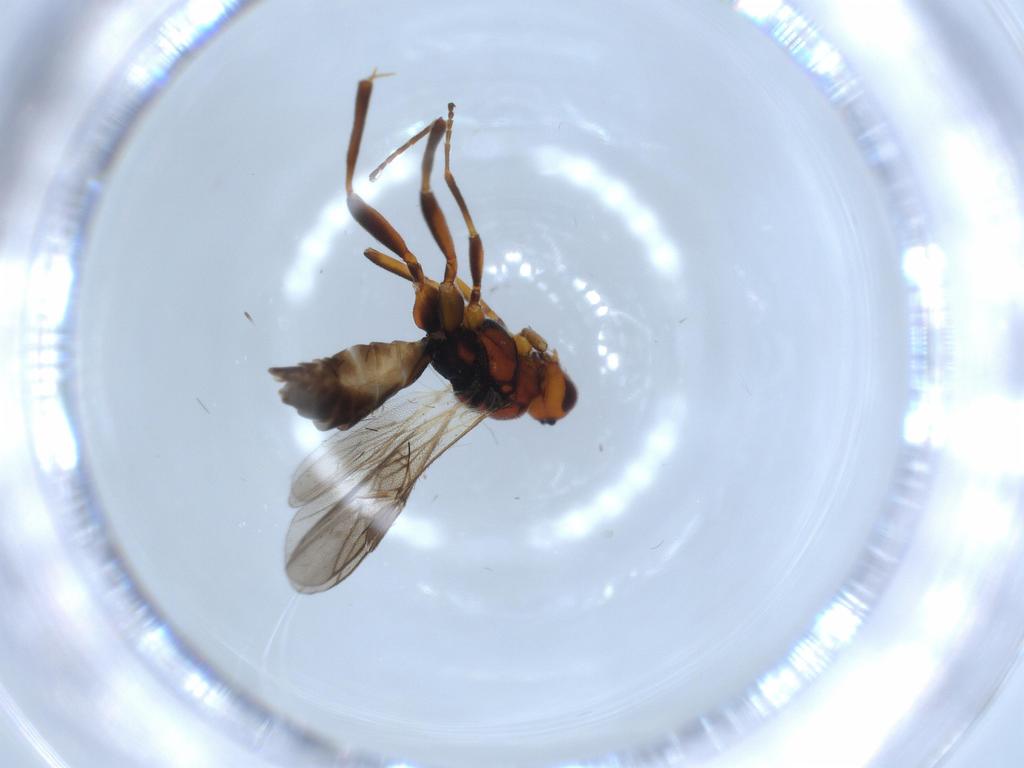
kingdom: Animalia
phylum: Arthropoda
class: Insecta
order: Hymenoptera
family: Braconidae
